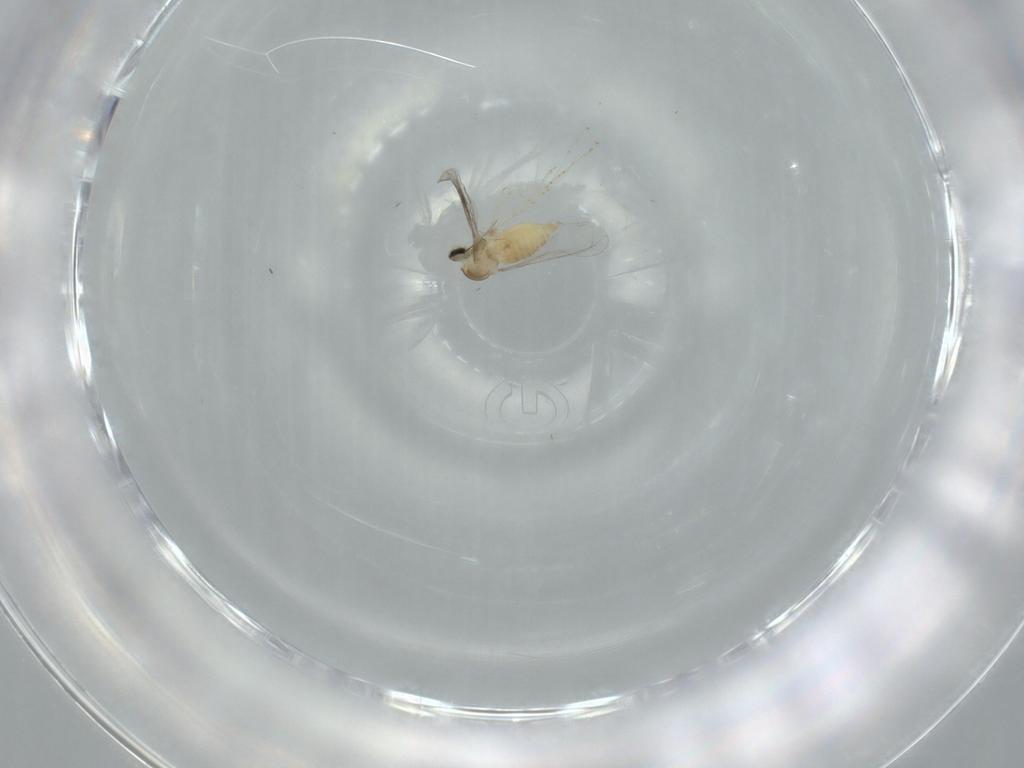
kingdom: Animalia
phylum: Arthropoda
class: Insecta
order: Diptera
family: Cecidomyiidae
